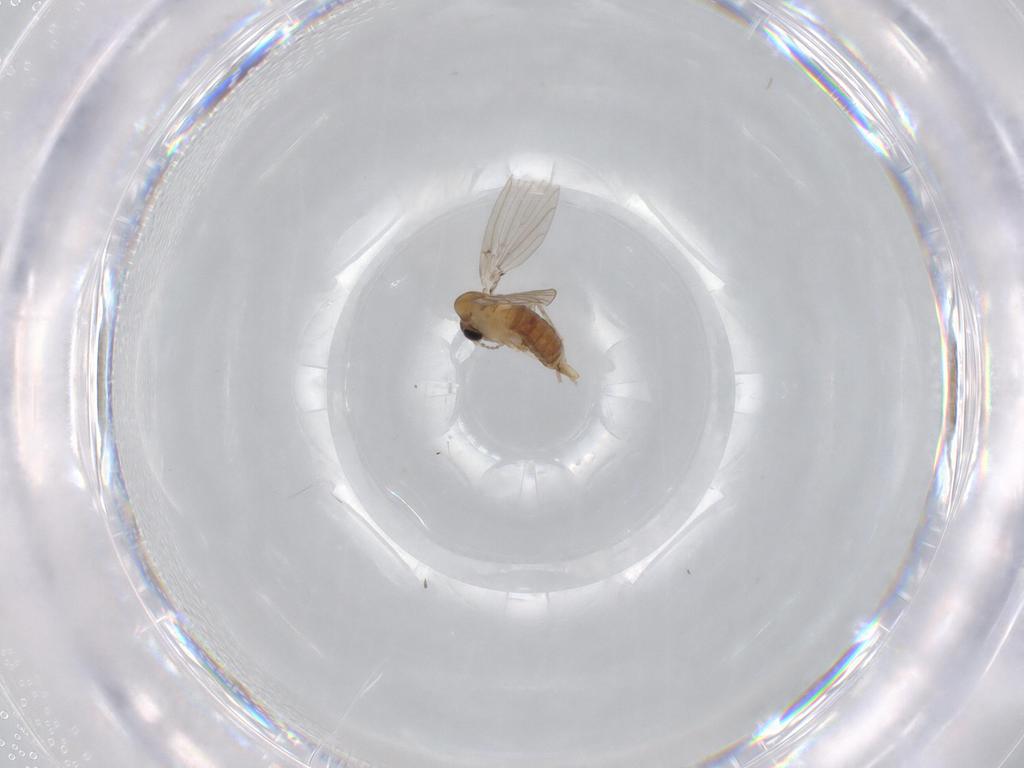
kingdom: Animalia
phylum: Arthropoda
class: Insecta
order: Diptera
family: Psychodidae
